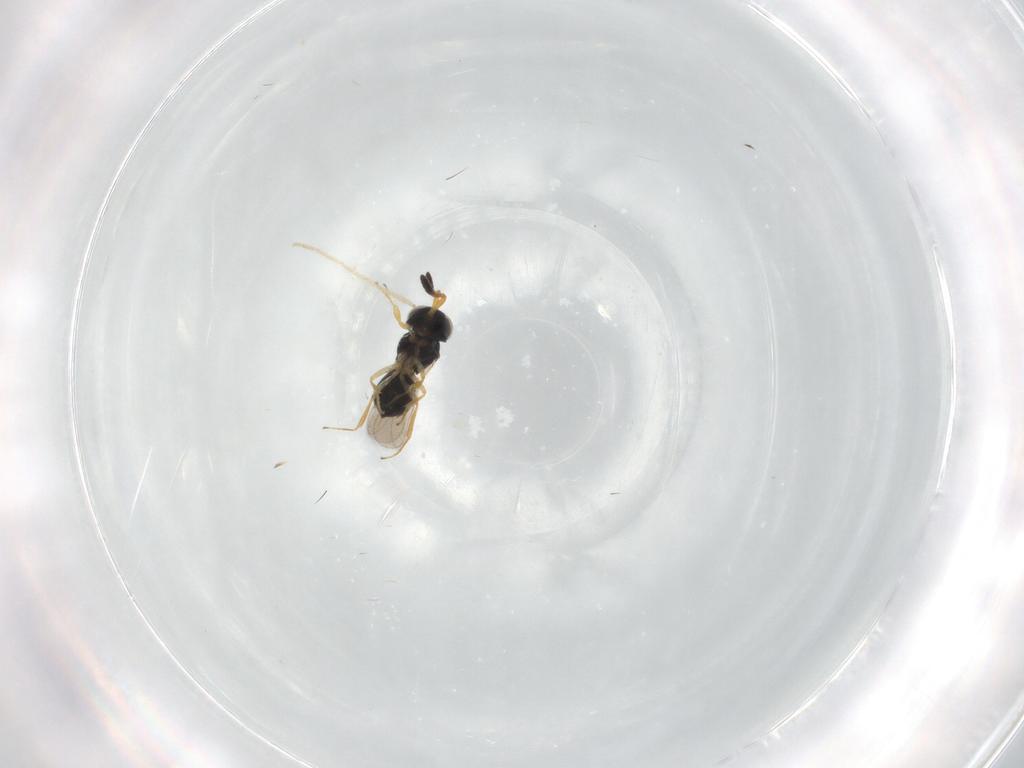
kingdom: Animalia
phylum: Arthropoda
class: Insecta
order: Hymenoptera
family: Scelionidae
